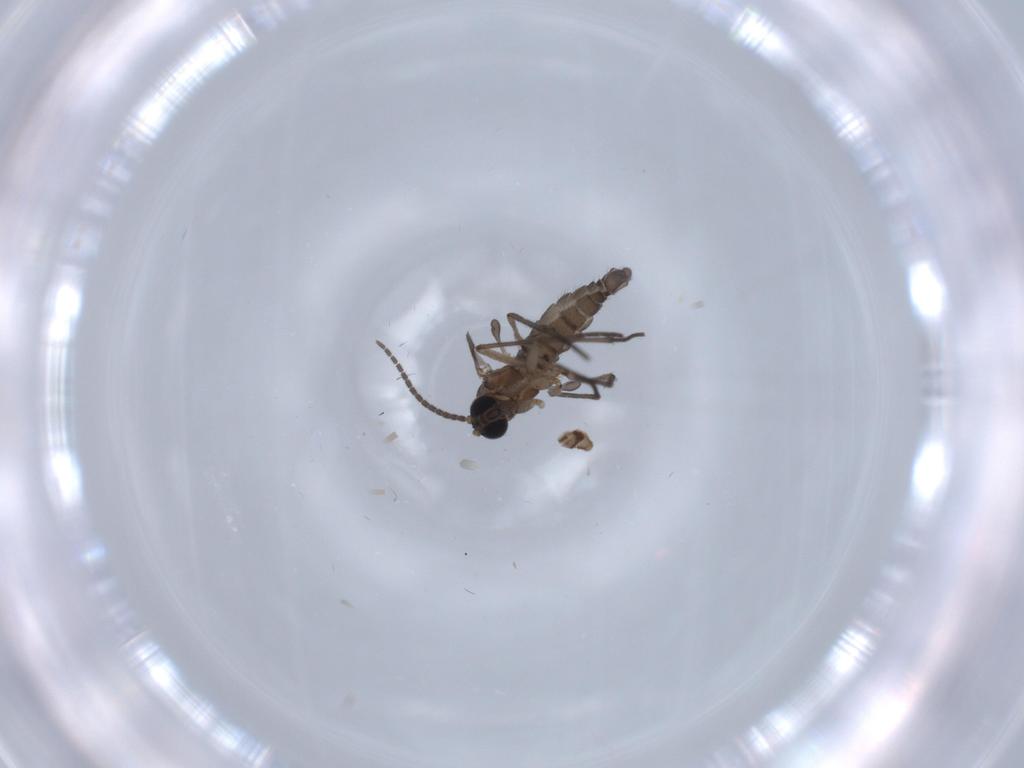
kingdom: Animalia
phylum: Arthropoda
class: Insecta
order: Diptera
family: Sciaridae
